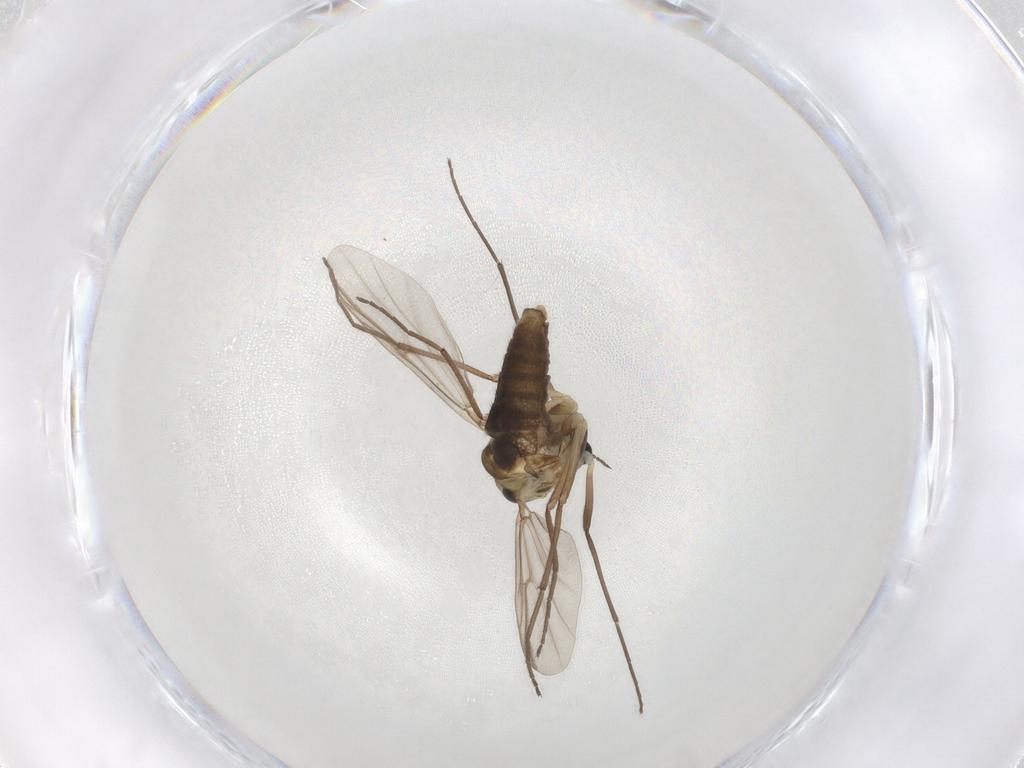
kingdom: Animalia
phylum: Arthropoda
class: Insecta
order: Diptera
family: Chironomidae
